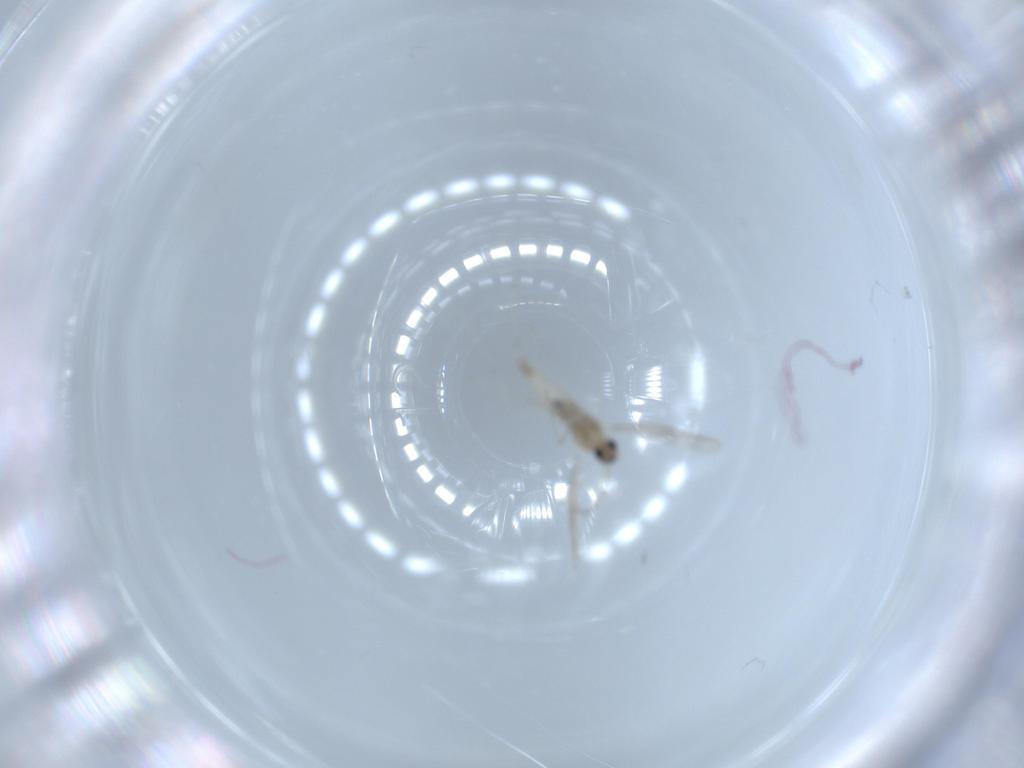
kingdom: Animalia
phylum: Arthropoda
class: Insecta
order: Diptera
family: Cecidomyiidae
